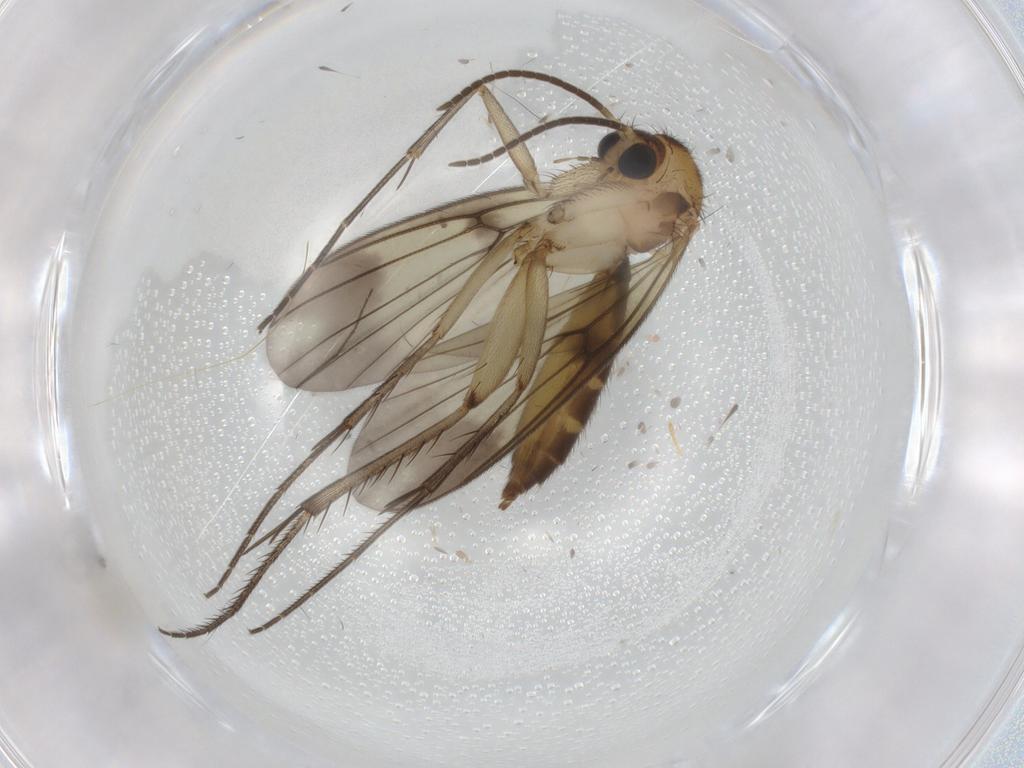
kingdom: Animalia
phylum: Arthropoda
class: Insecta
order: Diptera
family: Chironomidae
